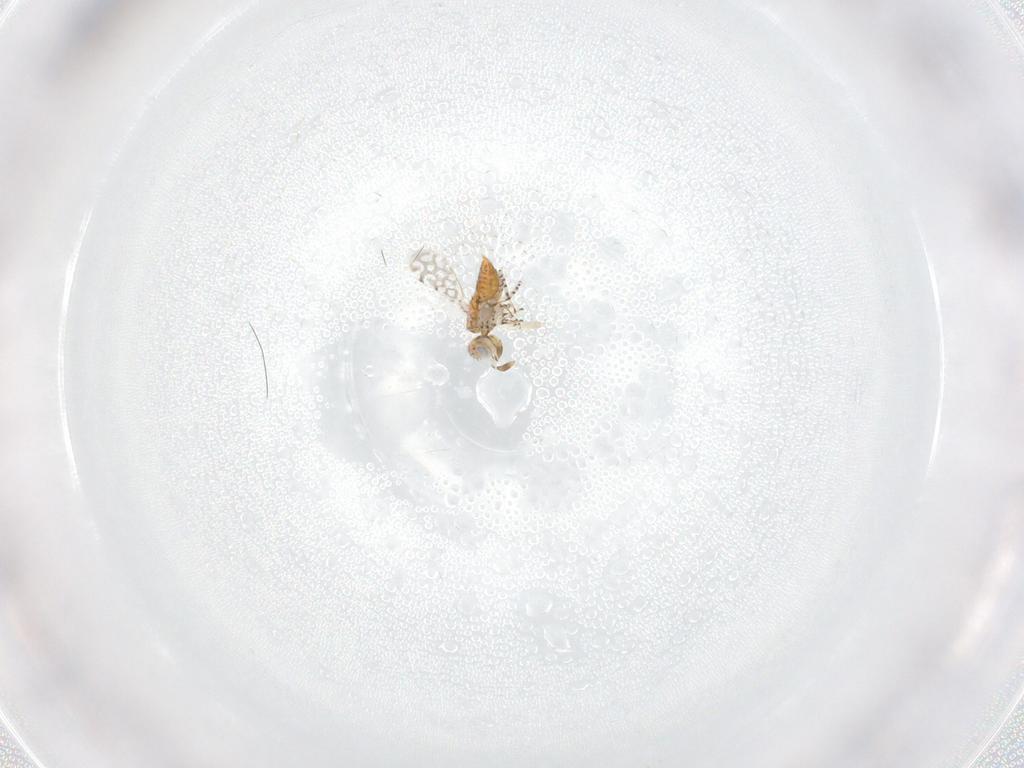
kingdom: Animalia
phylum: Arthropoda
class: Insecta
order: Hymenoptera
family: Aphelinidae
